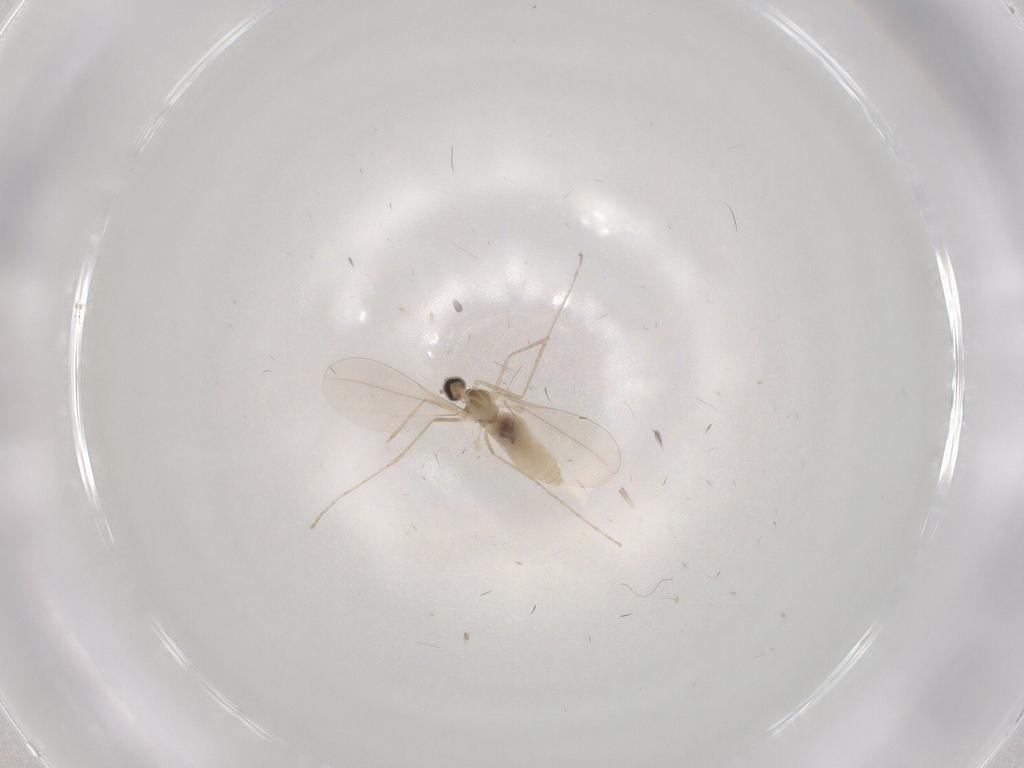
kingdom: Animalia
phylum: Arthropoda
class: Insecta
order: Diptera
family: Cecidomyiidae
